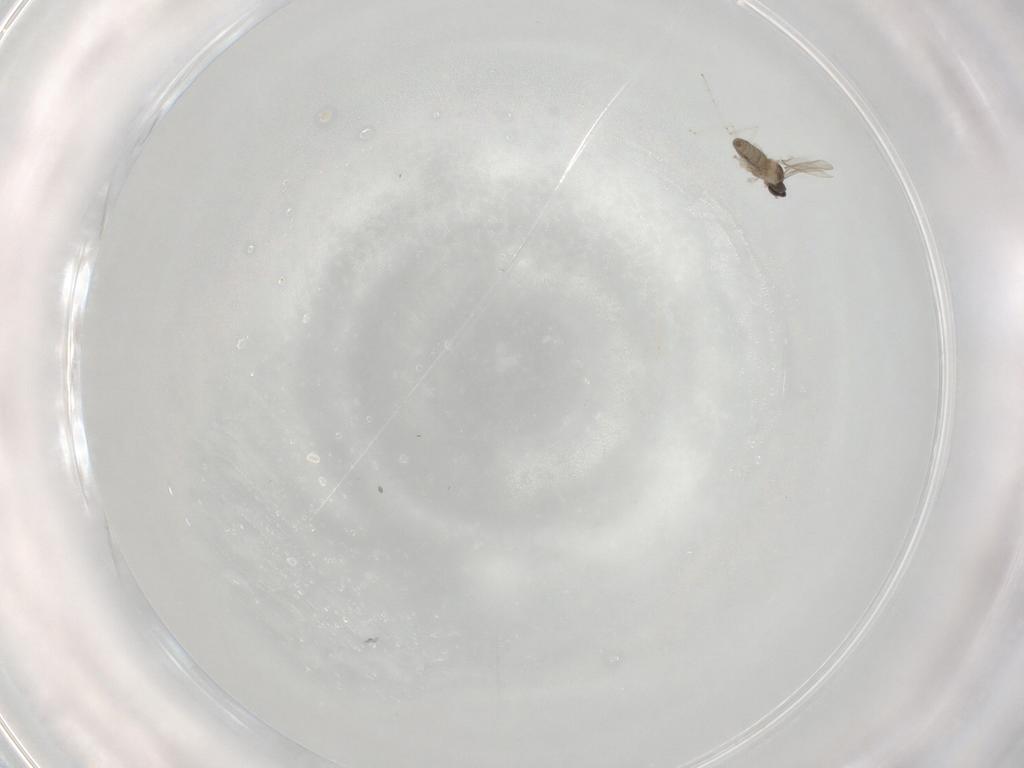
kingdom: Animalia
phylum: Arthropoda
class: Insecta
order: Diptera
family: Cecidomyiidae
